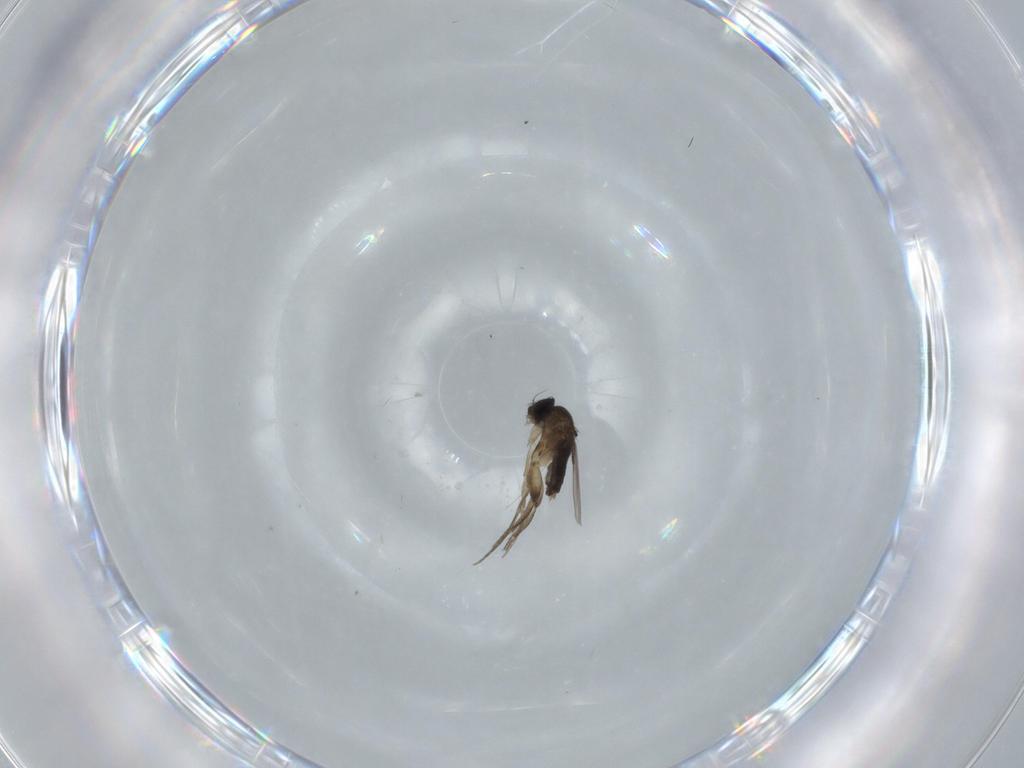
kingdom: Animalia
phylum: Arthropoda
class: Insecta
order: Diptera
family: Phoridae
